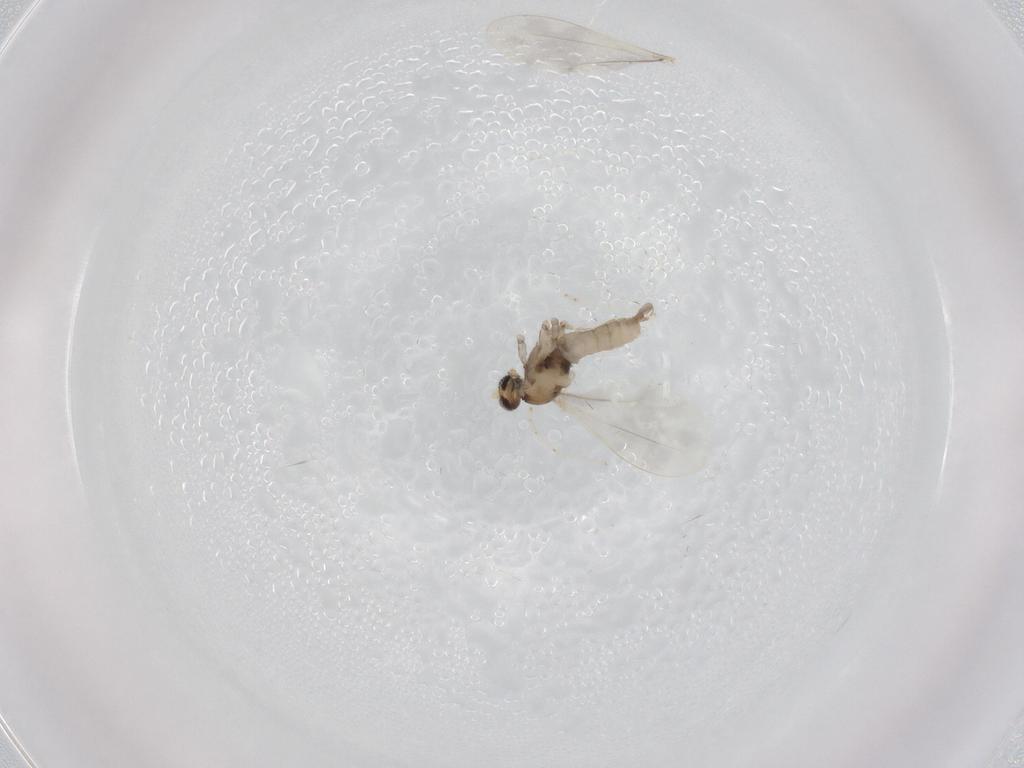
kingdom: Animalia
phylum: Arthropoda
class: Insecta
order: Diptera
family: Cecidomyiidae
